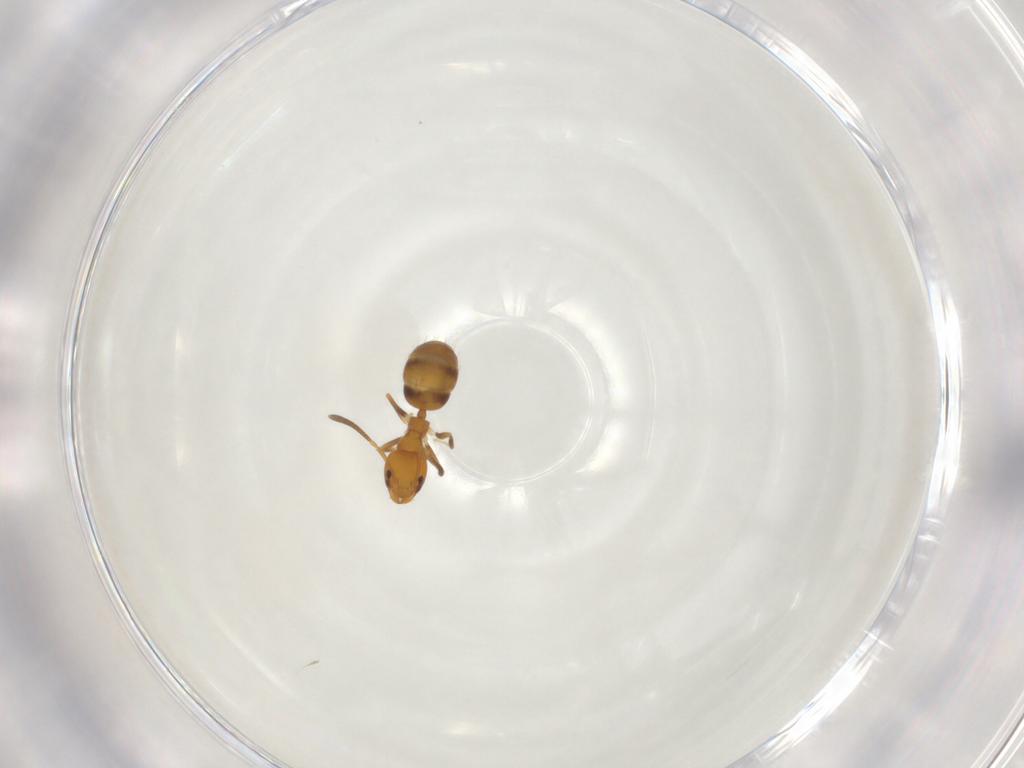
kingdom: Animalia
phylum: Arthropoda
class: Insecta
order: Hymenoptera
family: Formicidae
